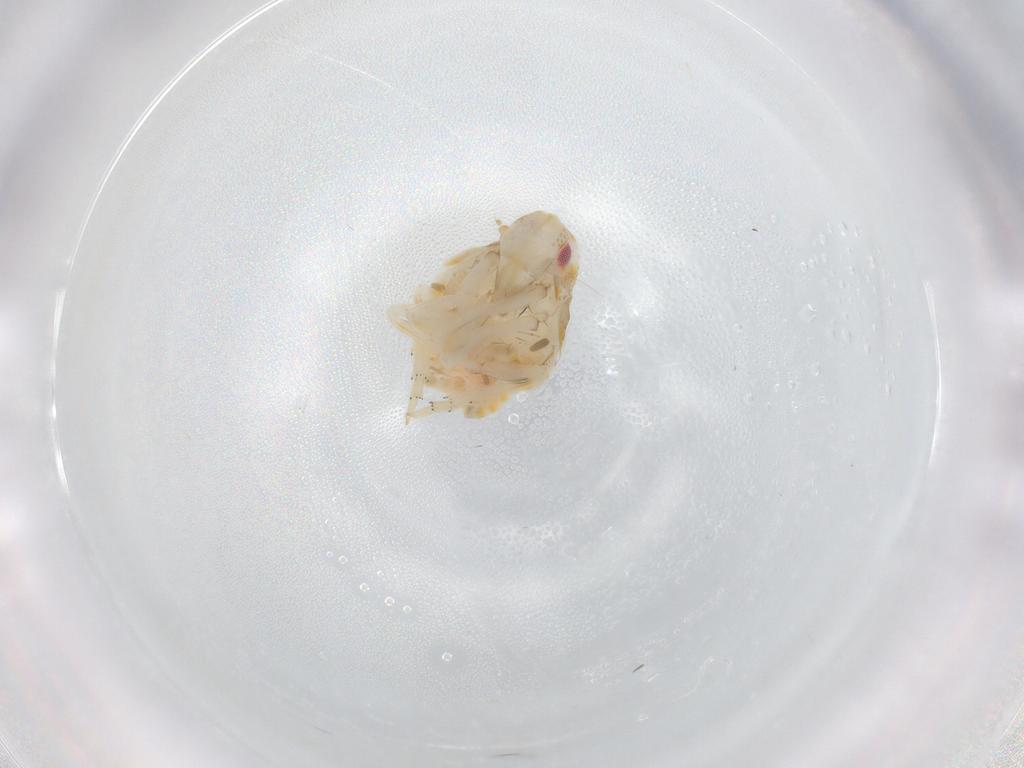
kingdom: Animalia
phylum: Arthropoda
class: Insecta
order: Hemiptera
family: Flatidae
